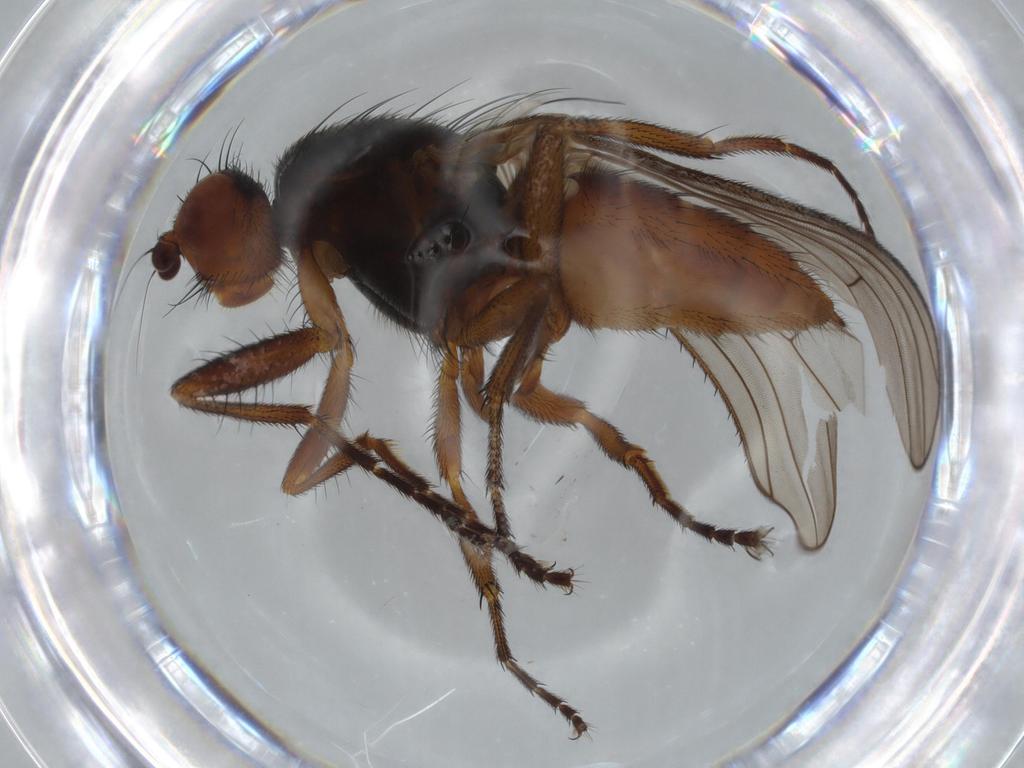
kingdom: Animalia
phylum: Arthropoda
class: Insecta
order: Diptera
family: Heleomyzidae
